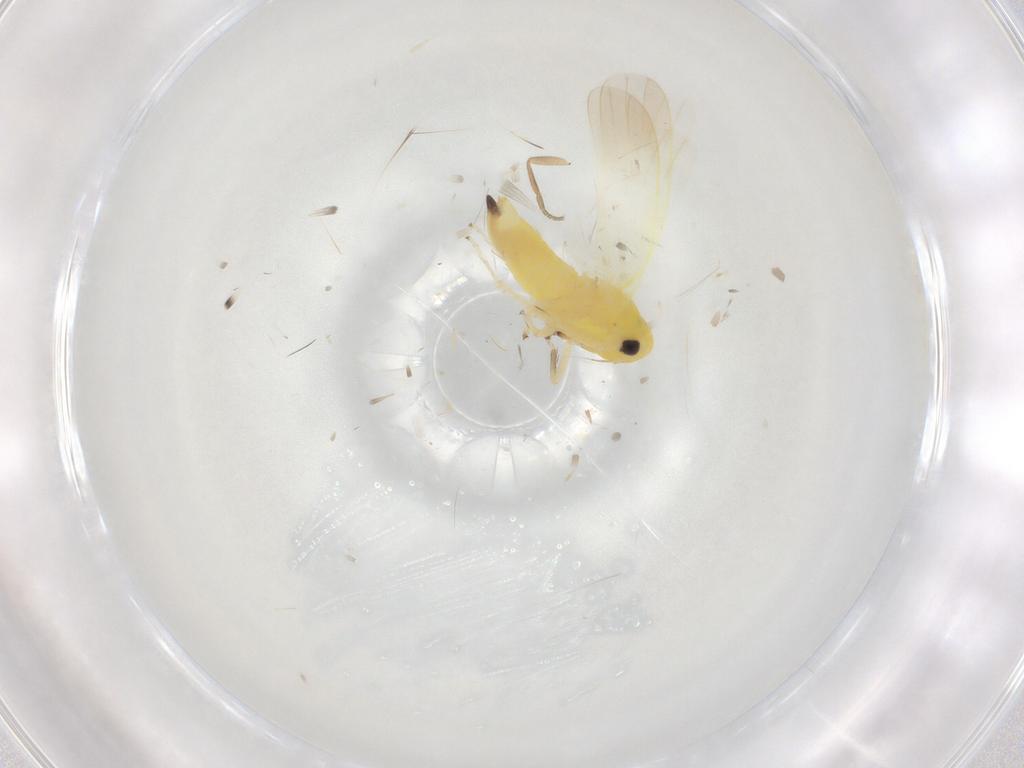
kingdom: Animalia
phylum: Arthropoda
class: Insecta
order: Hemiptera
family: Cicadellidae
